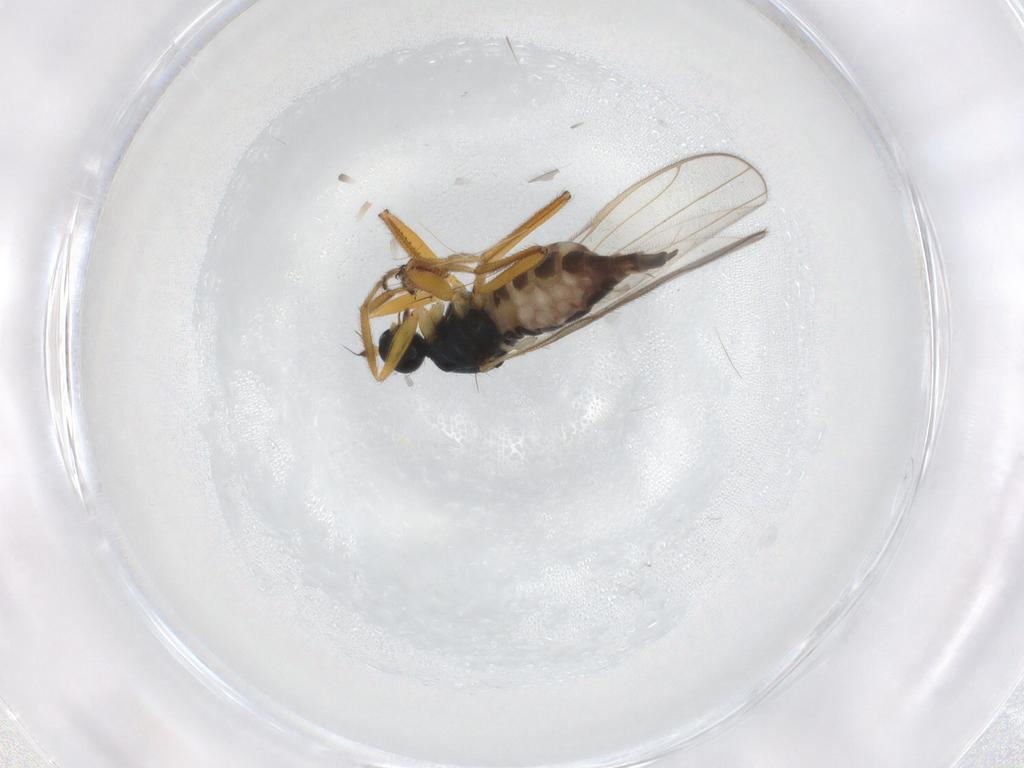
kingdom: Animalia
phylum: Arthropoda
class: Insecta
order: Diptera
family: Hybotidae
